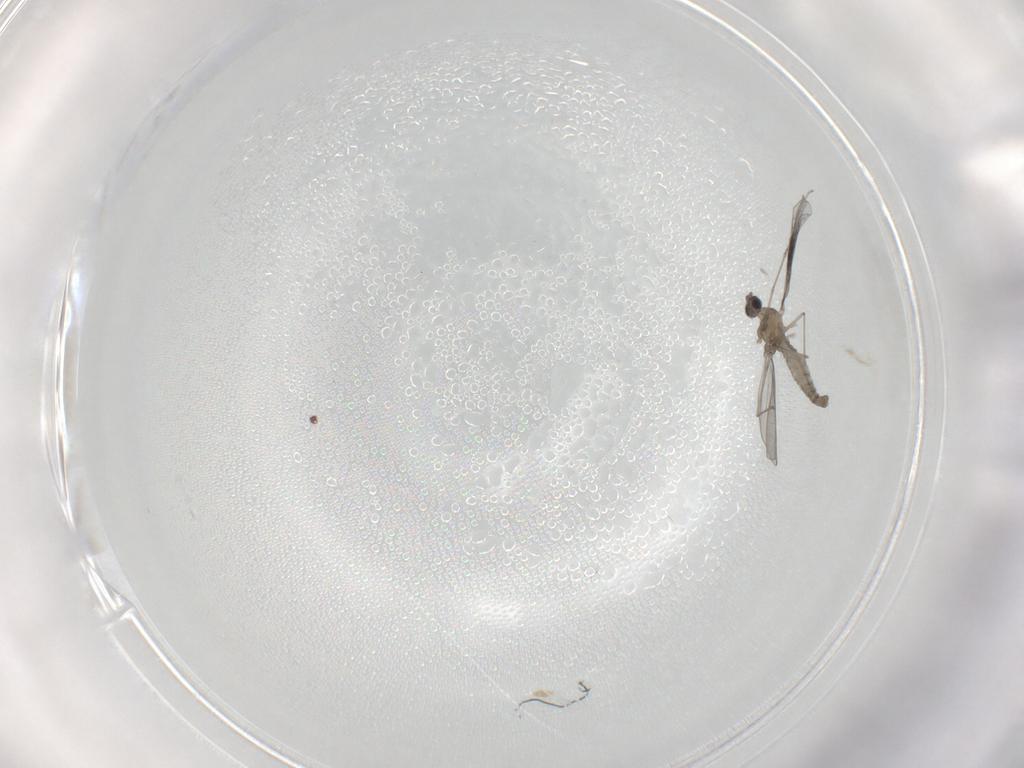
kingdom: Animalia
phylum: Arthropoda
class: Insecta
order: Diptera
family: Cecidomyiidae
